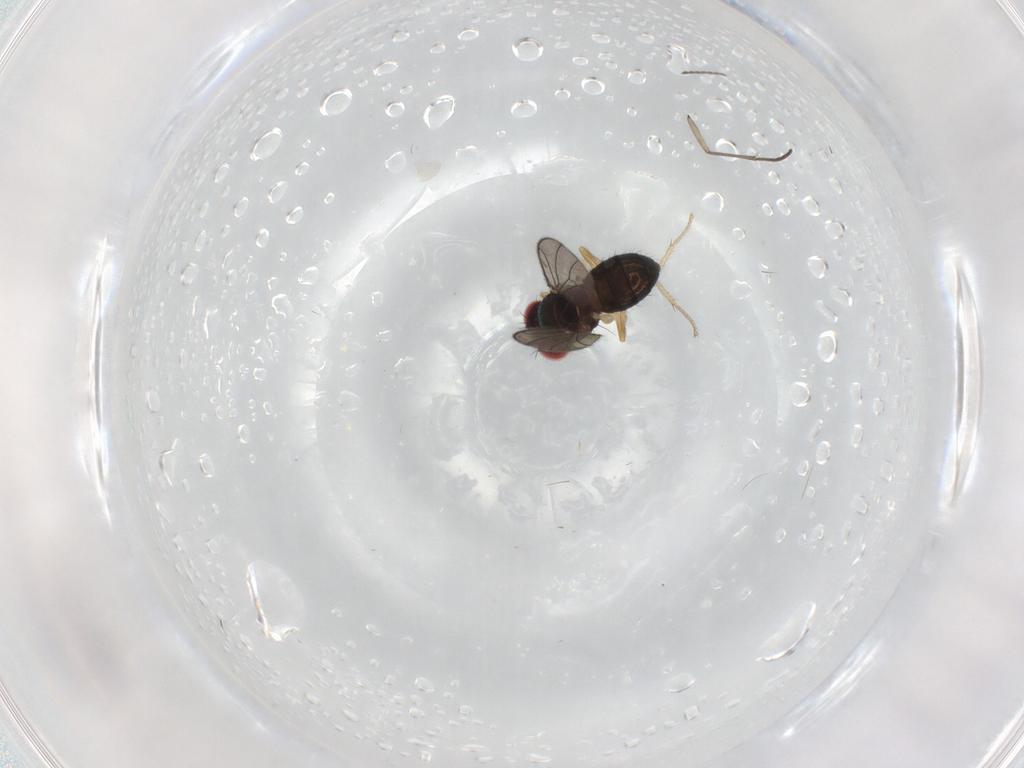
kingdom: Animalia
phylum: Arthropoda
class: Insecta
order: Diptera
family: Drosophilidae
